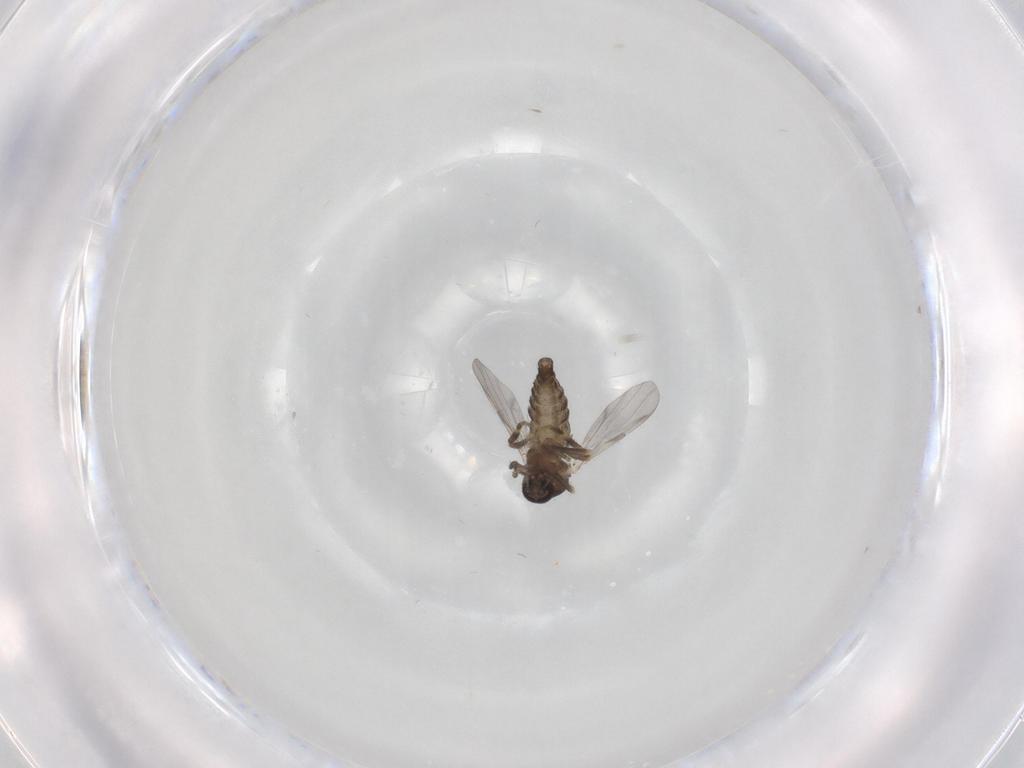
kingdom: Animalia
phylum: Arthropoda
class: Insecta
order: Diptera
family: Ceratopogonidae
